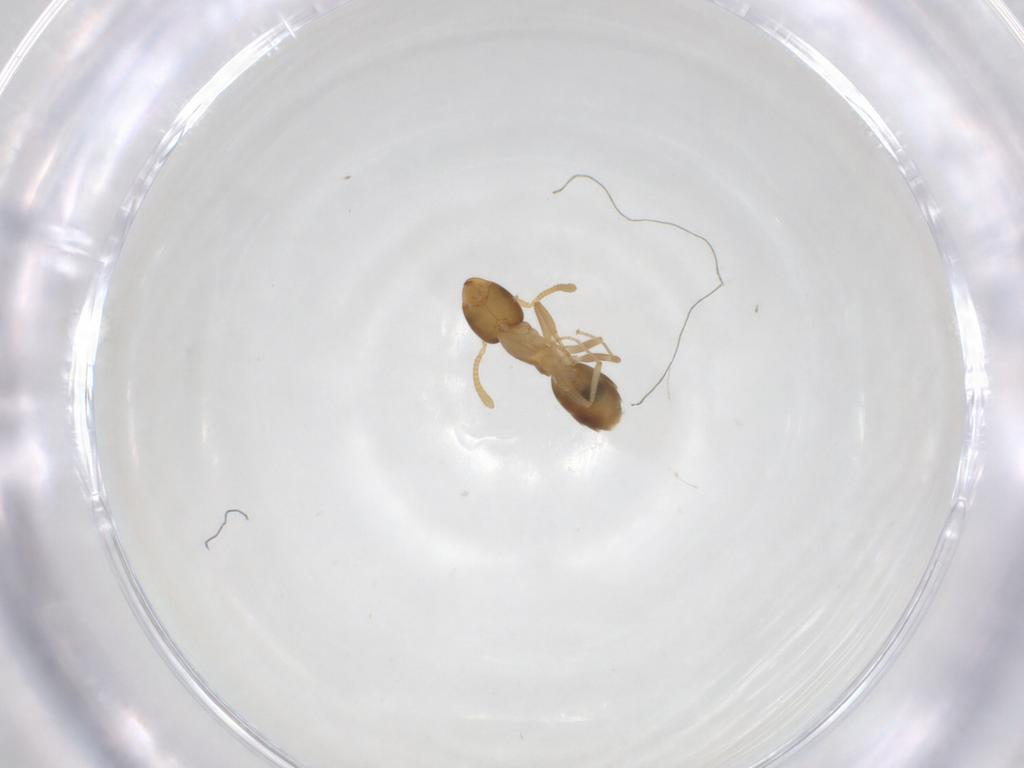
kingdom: Animalia
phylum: Arthropoda
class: Insecta
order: Hymenoptera
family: Formicidae
